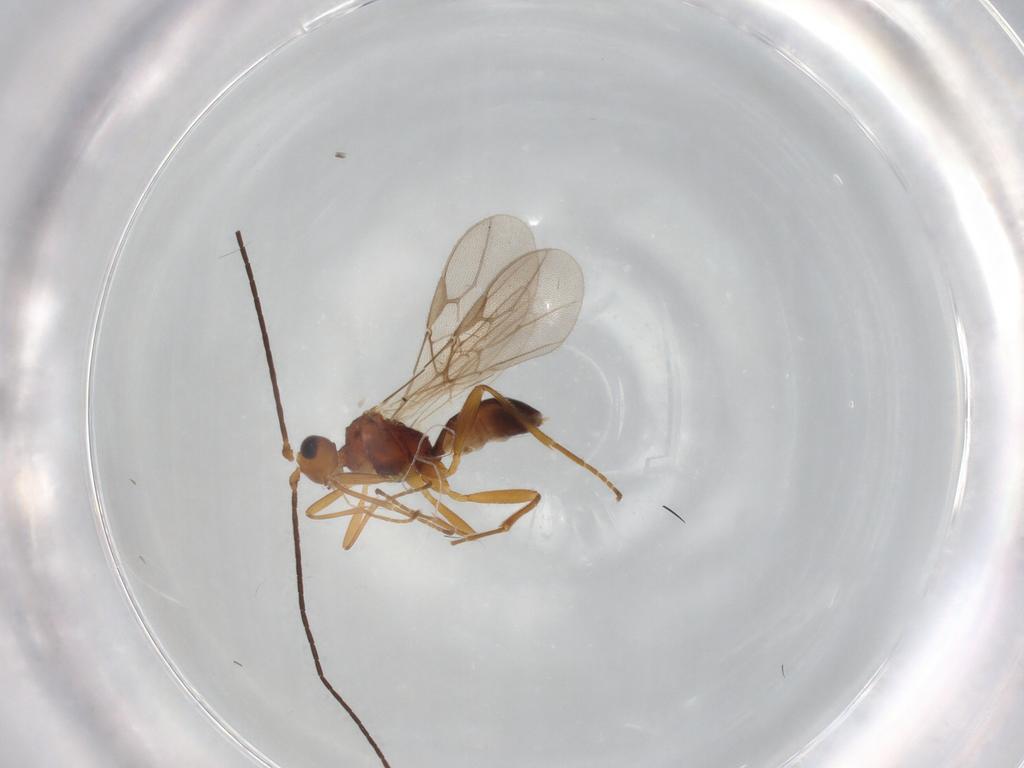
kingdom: Animalia
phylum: Arthropoda
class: Insecta
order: Hymenoptera
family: Braconidae
